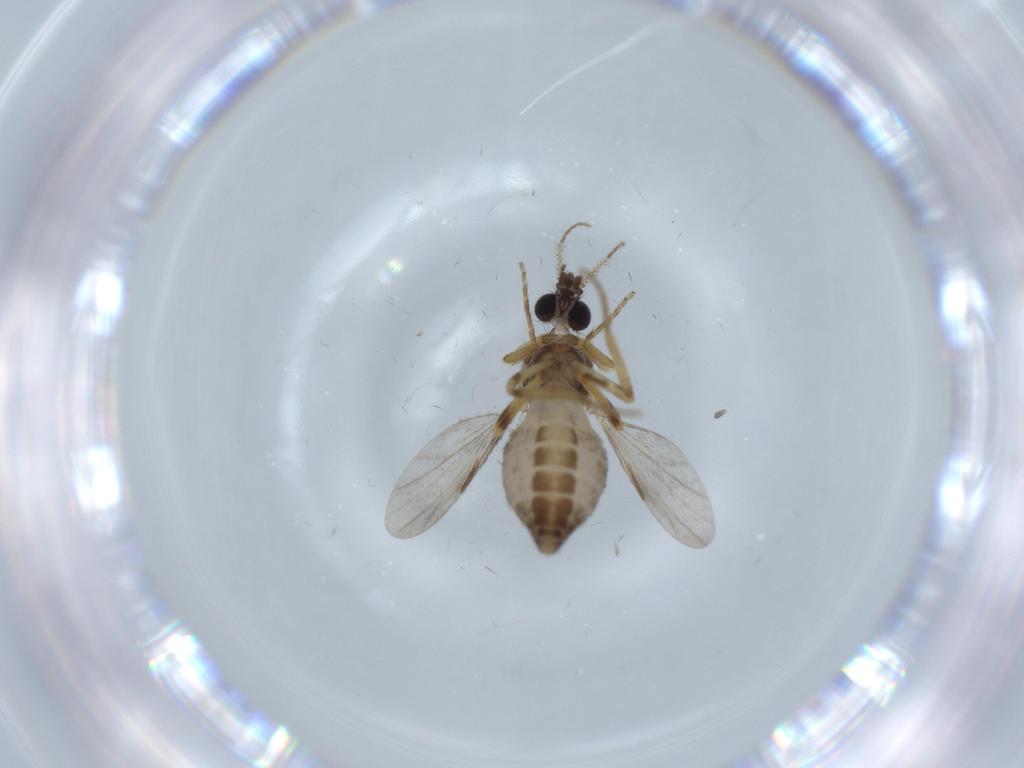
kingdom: Animalia
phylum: Arthropoda
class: Insecta
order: Diptera
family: Ceratopogonidae
